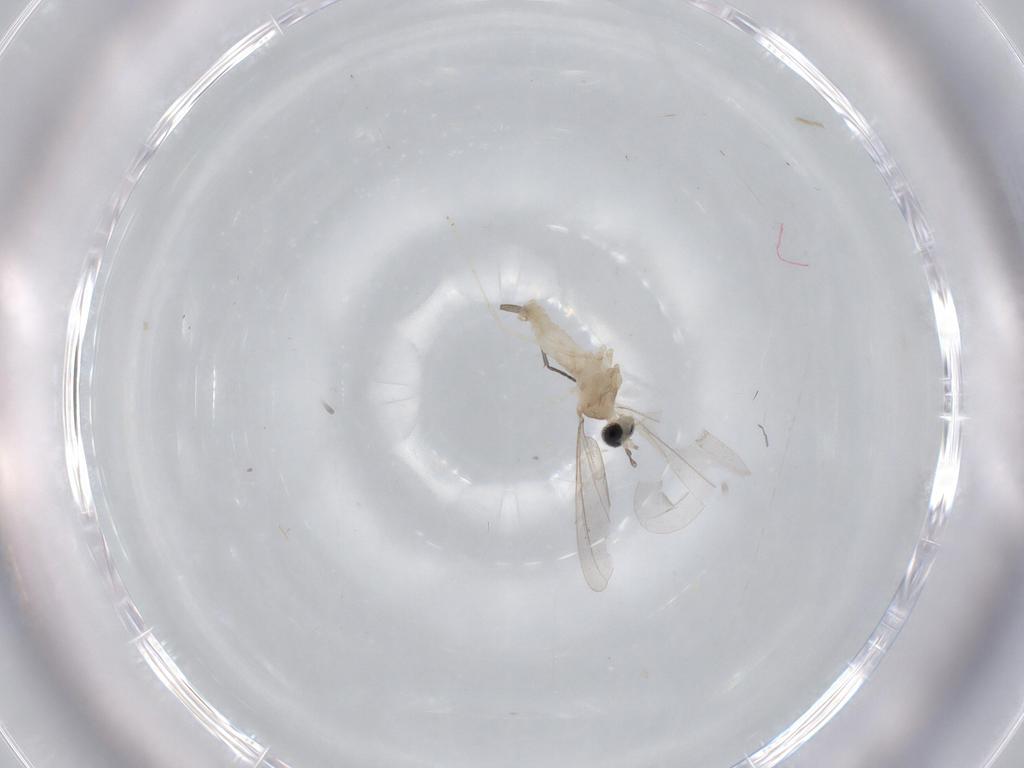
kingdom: Animalia
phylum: Arthropoda
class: Insecta
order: Diptera
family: Cecidomyiidae
